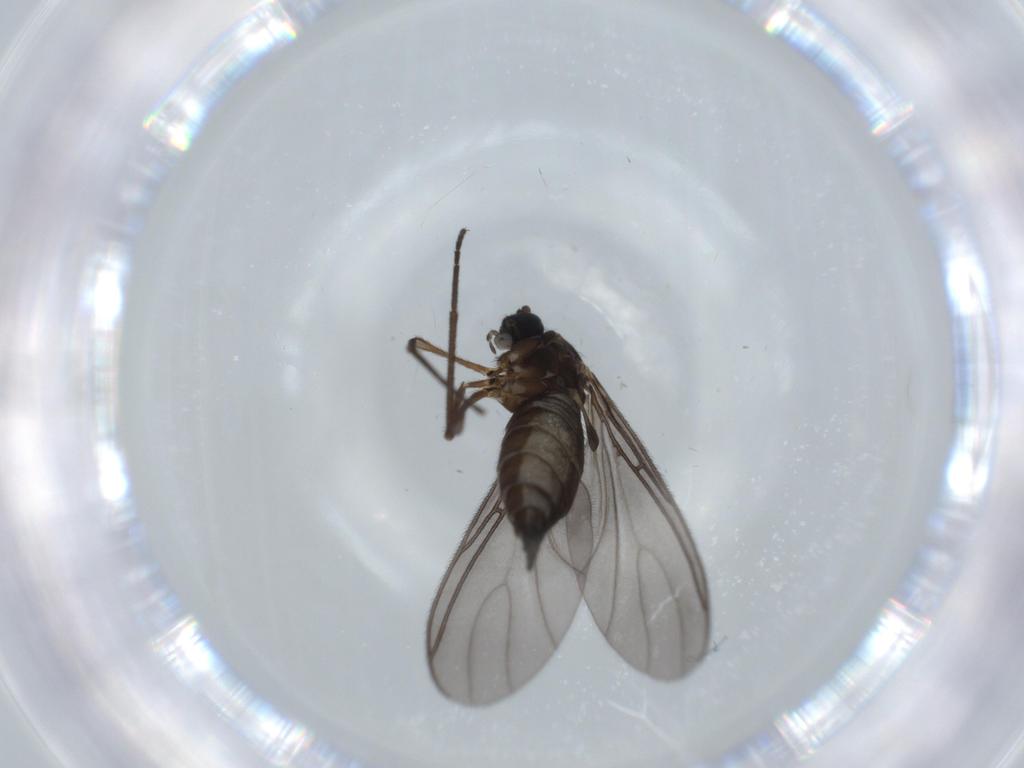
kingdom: Animalia
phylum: Arthropoda
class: Insecta
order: Diptera
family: Sciaridae
